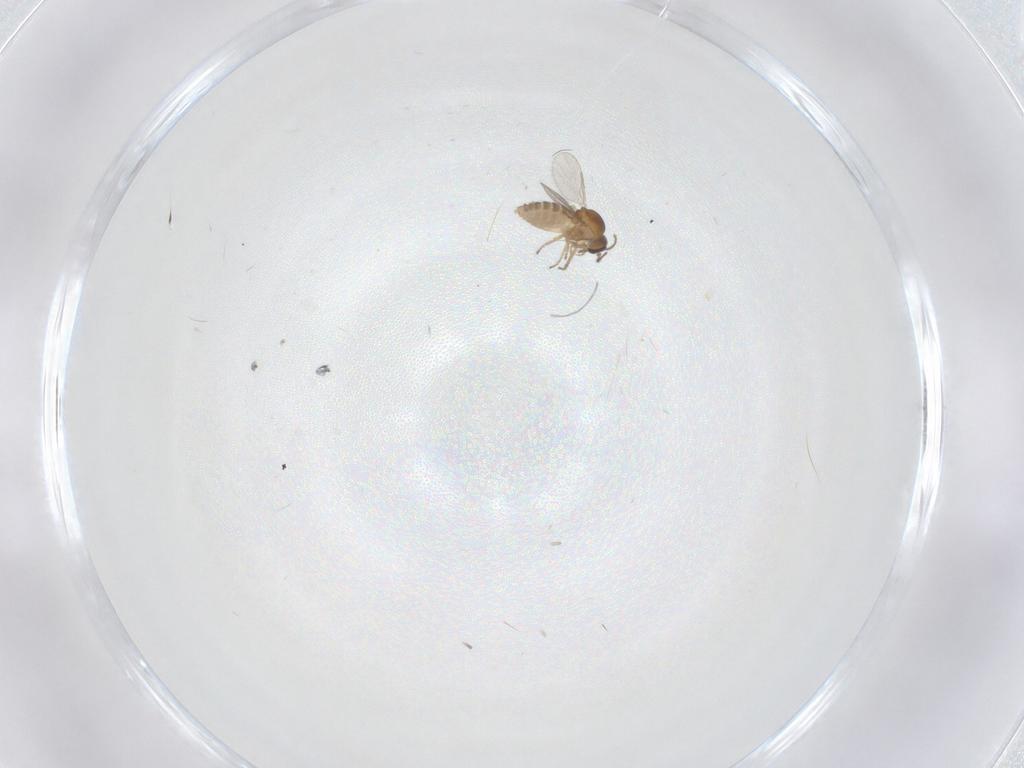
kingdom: Animalia
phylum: Arthropoda
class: Insecta
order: Diptera
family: Ceratopogonidae
